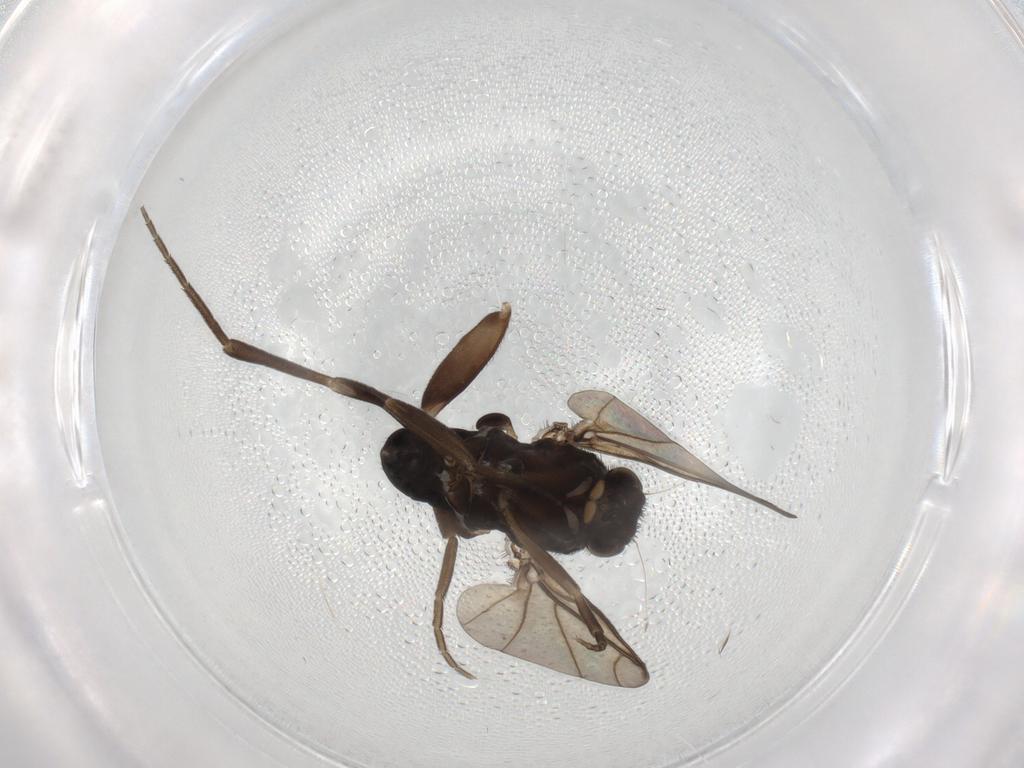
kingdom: Animalia
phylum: Arthropoda
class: Insecta
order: Diptera
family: Phoridae
